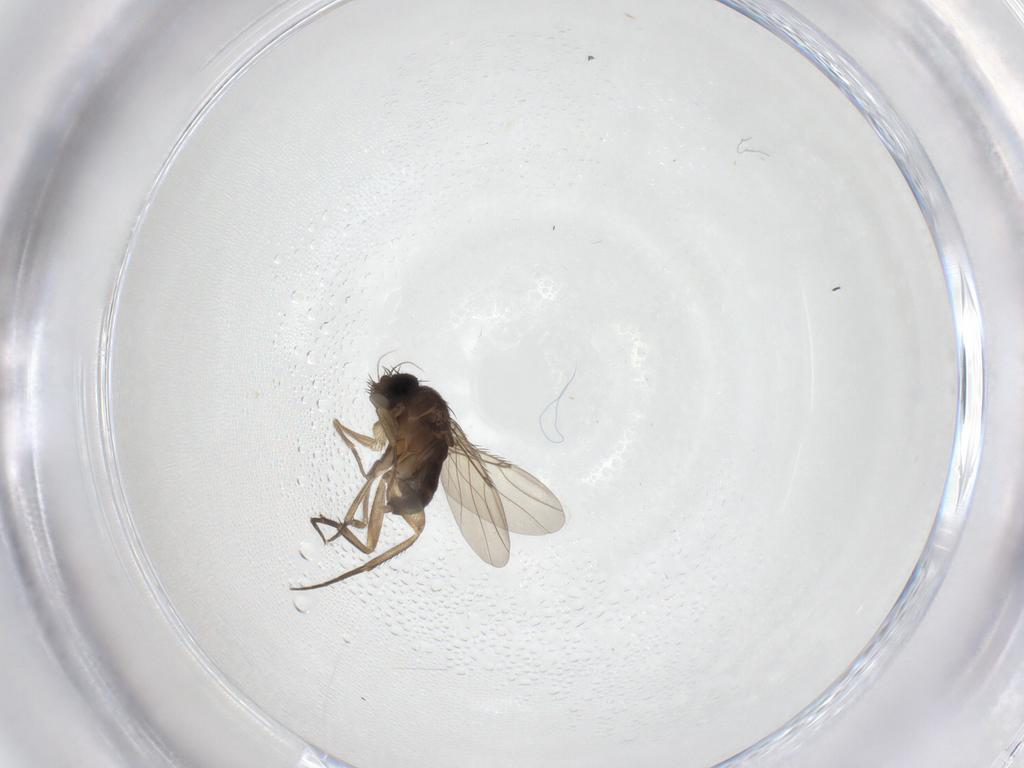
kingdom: Animalia
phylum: Arthropoda
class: Insecta
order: Diptera
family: Phoridae
